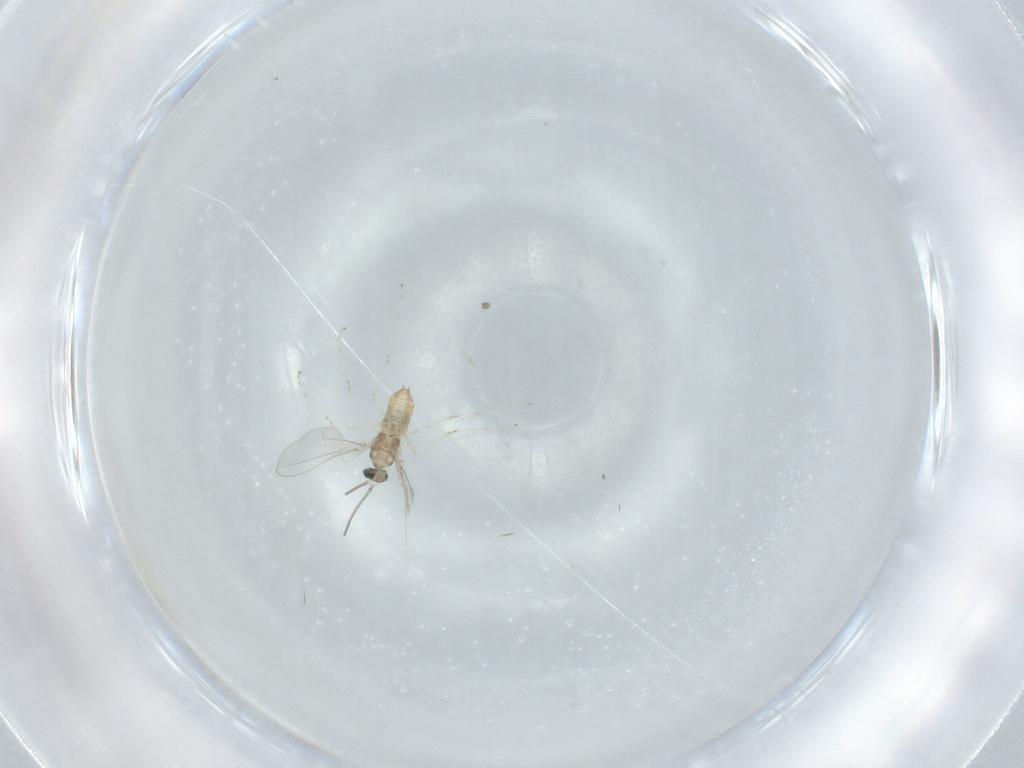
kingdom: Animalia
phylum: Arthropoda
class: Insecta
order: Diptera
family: Cecidomyiidae
